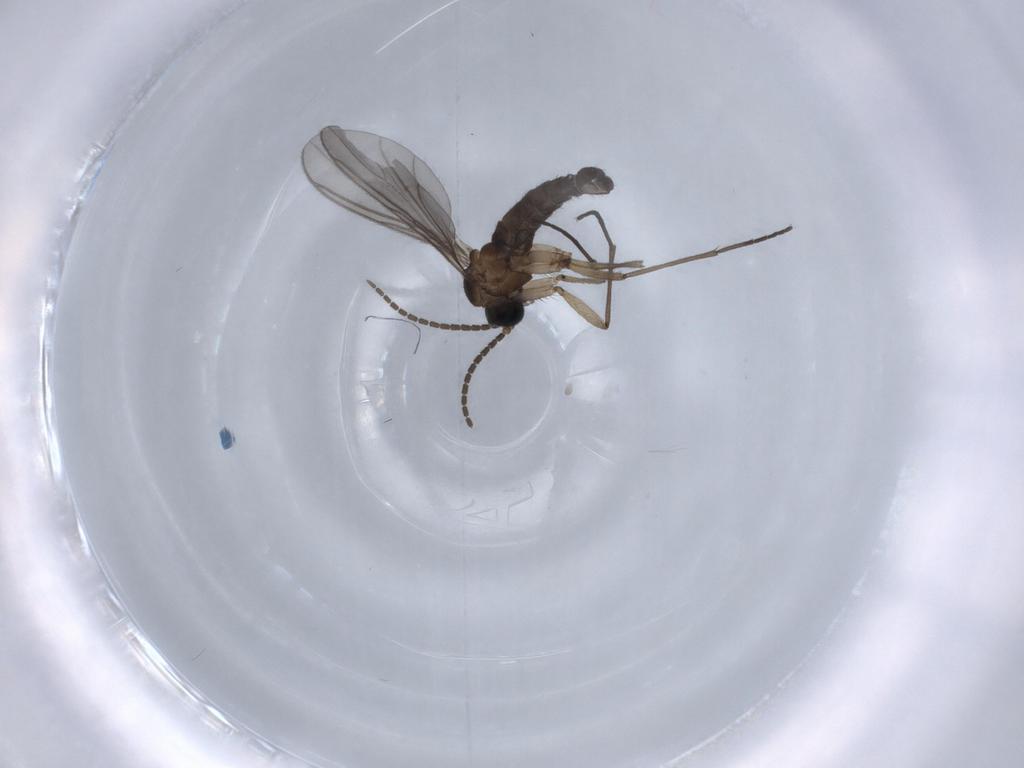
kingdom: Animalia
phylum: Arthropoda
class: Insecta
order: Diptera
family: Sciaridae
